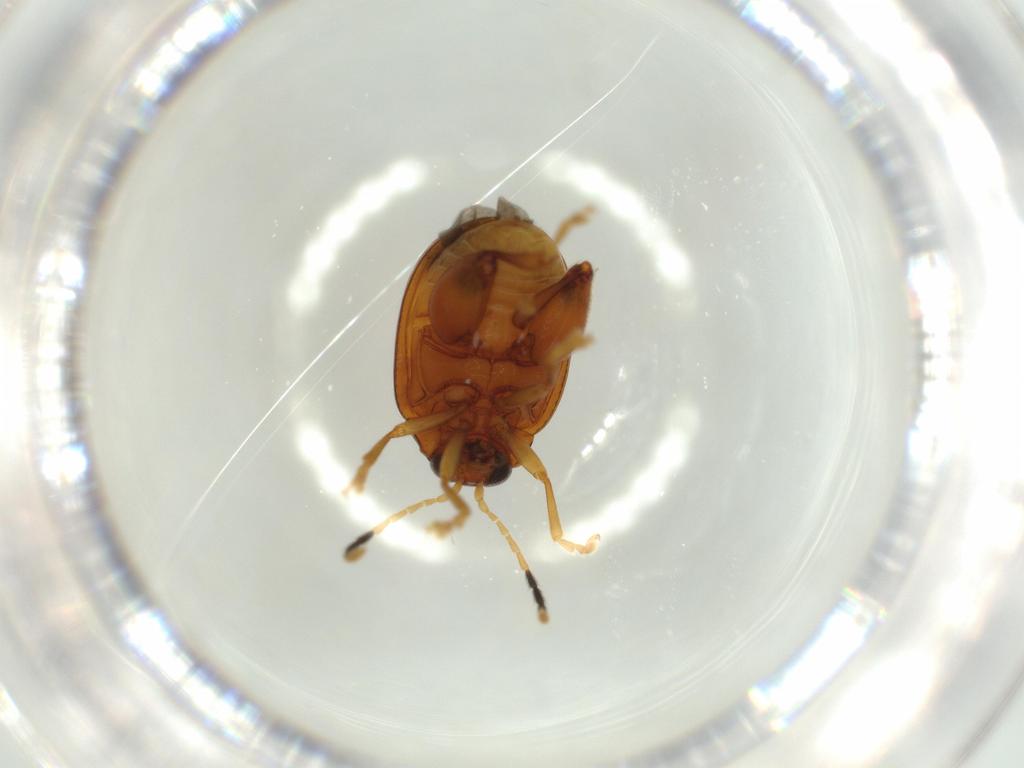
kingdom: Animalia
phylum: Arthropoda
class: Insecta
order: Coleoptera
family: Chrysomelidae
